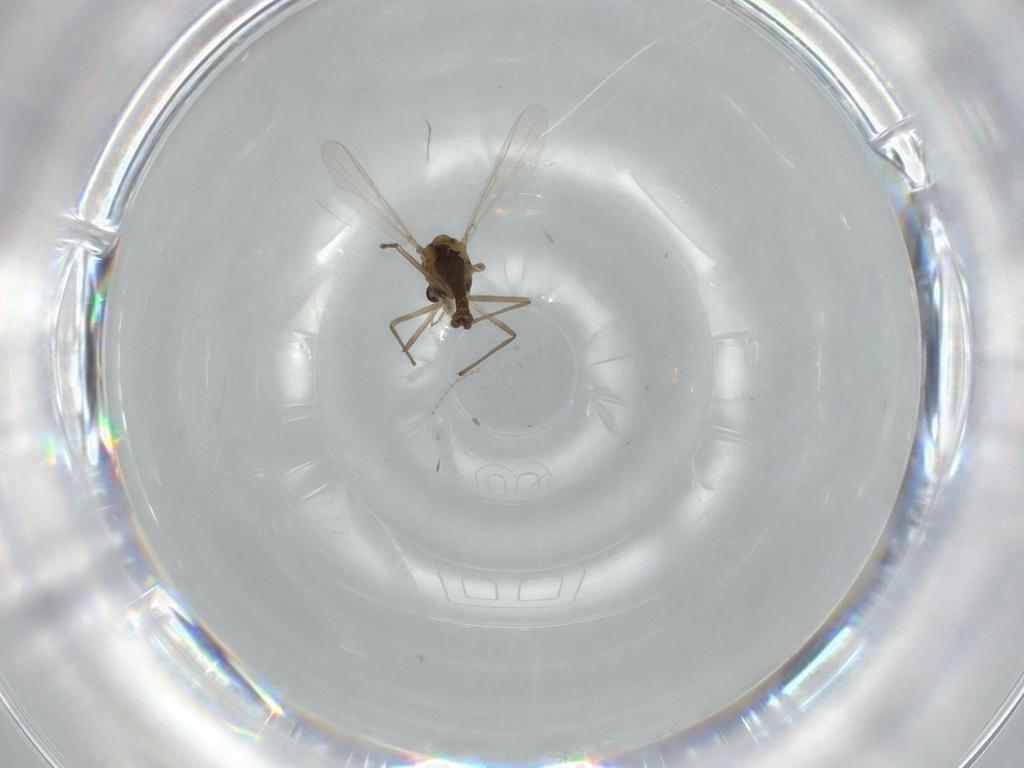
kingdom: Animalia
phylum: Arthropoda
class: Insecta
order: Diptera
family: Chironomidae
